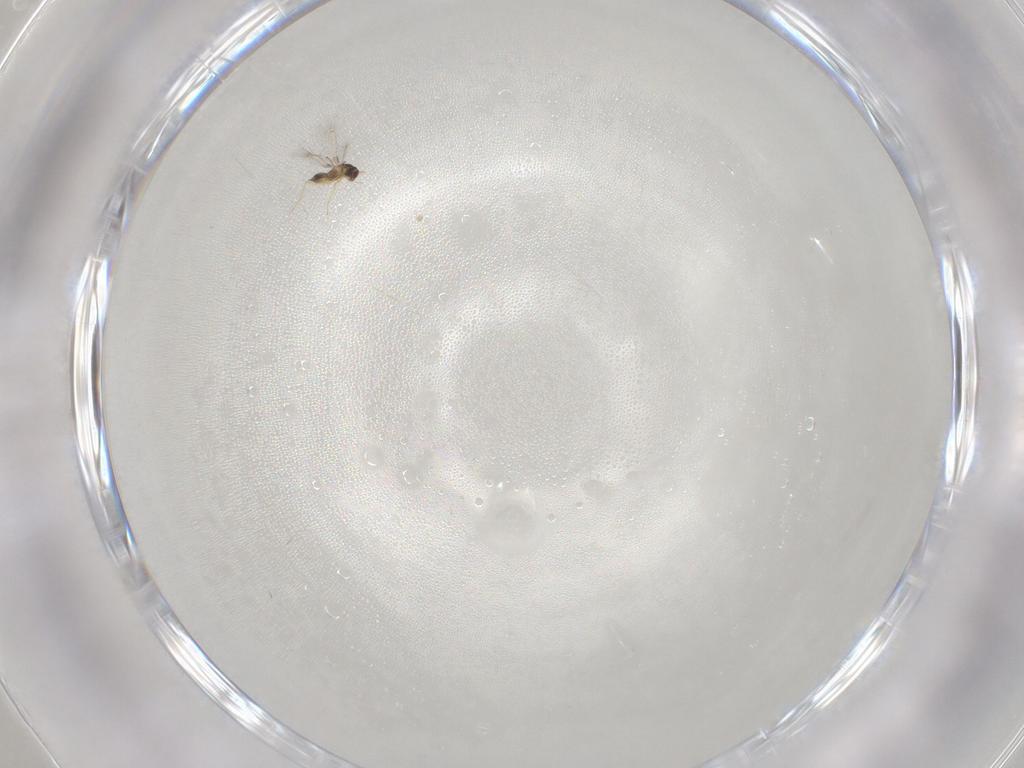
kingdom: Animalia
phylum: Arthropoda
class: Insecta
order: Hymenoptera
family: Mymaridae
